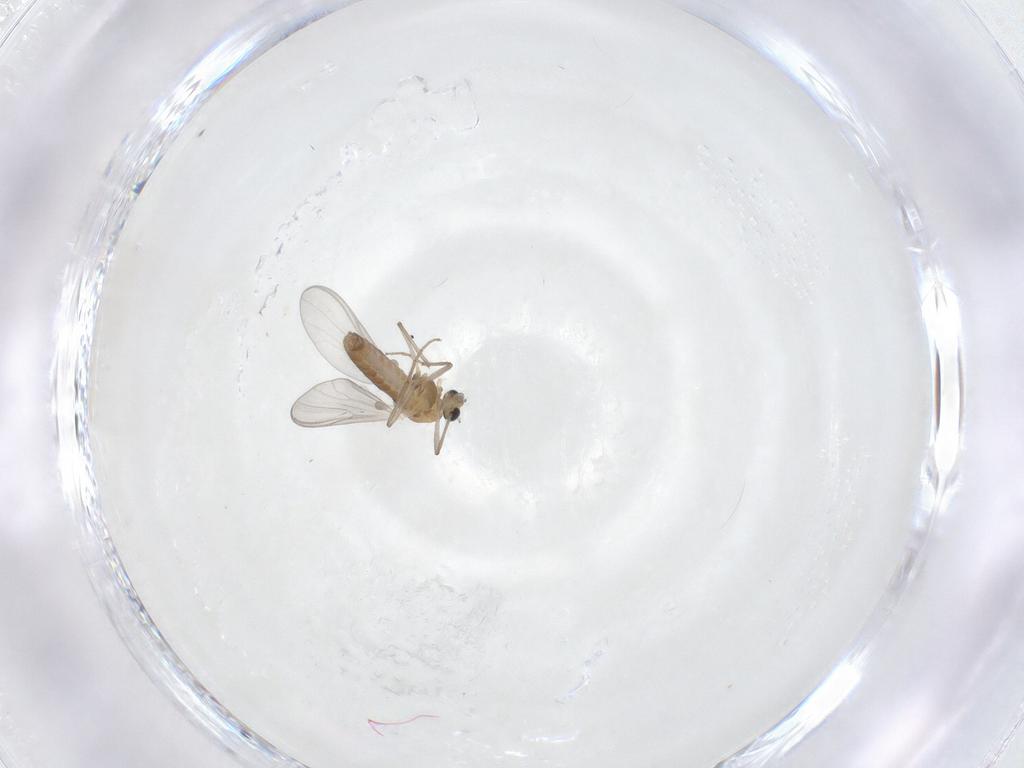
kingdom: Animalia
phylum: Arthropoda
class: Insecta
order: Diptera
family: Chironomidae
